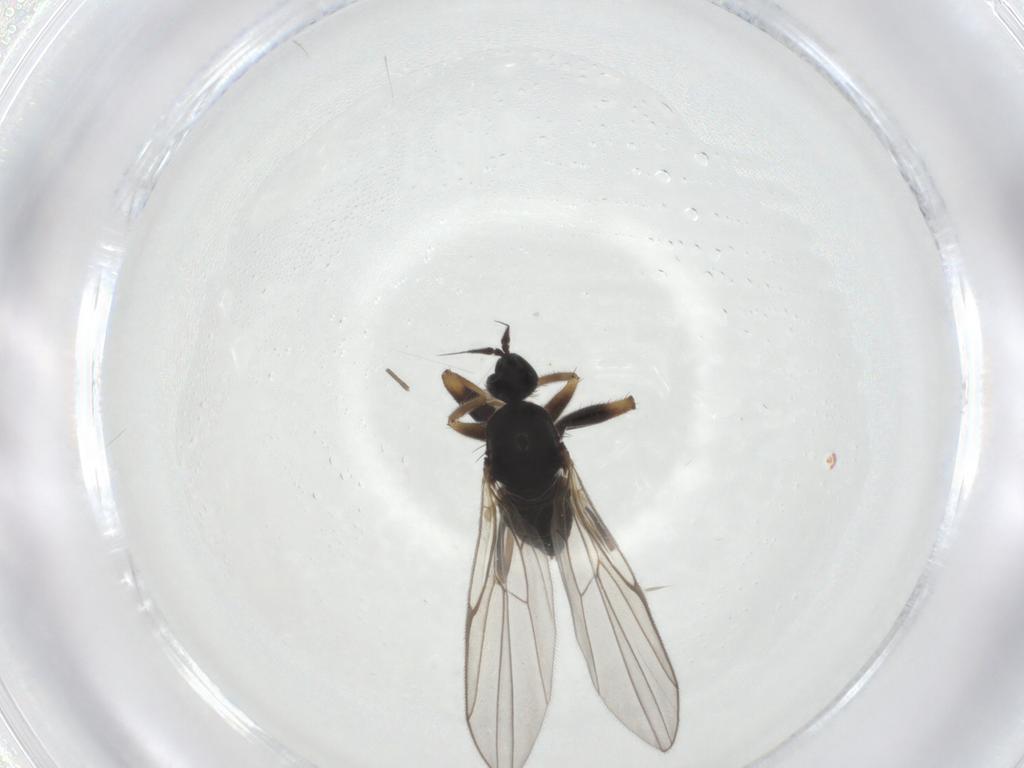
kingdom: Animalia
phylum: Arthropoda
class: Insecta
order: Diptera
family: Hybotidae
